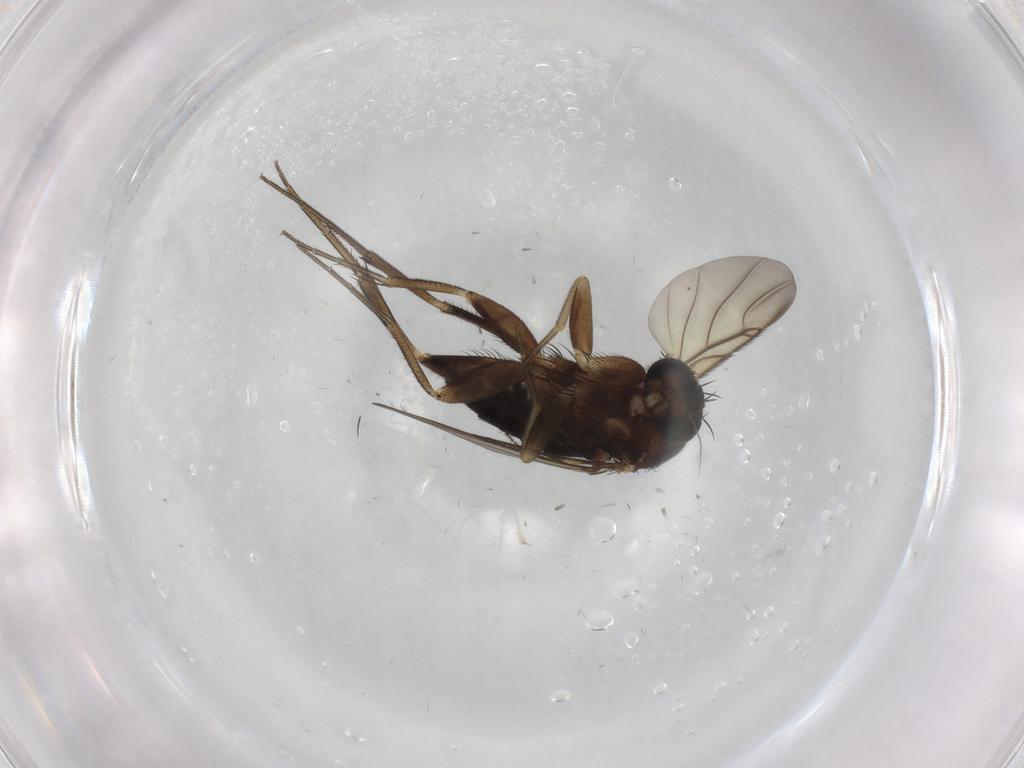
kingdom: Animalia
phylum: Arthropoda
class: Insecta
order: Diptera
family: Phoridae
